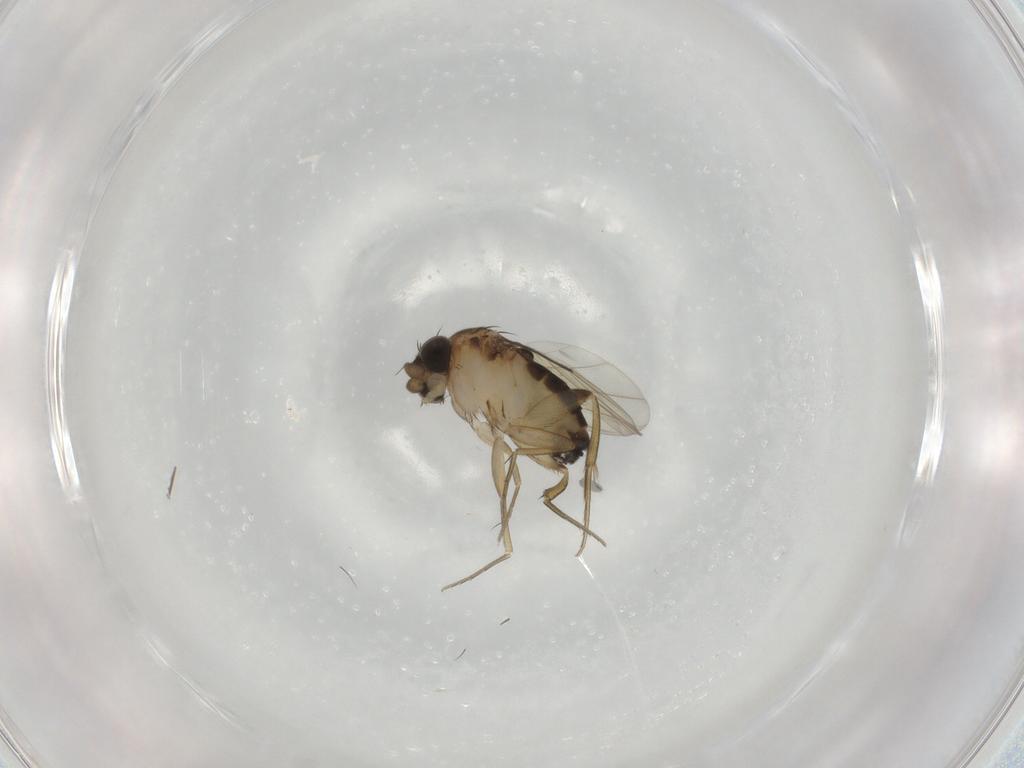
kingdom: Animalia
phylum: Arthropoda
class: Insecta
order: Diptera
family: Phoridae
